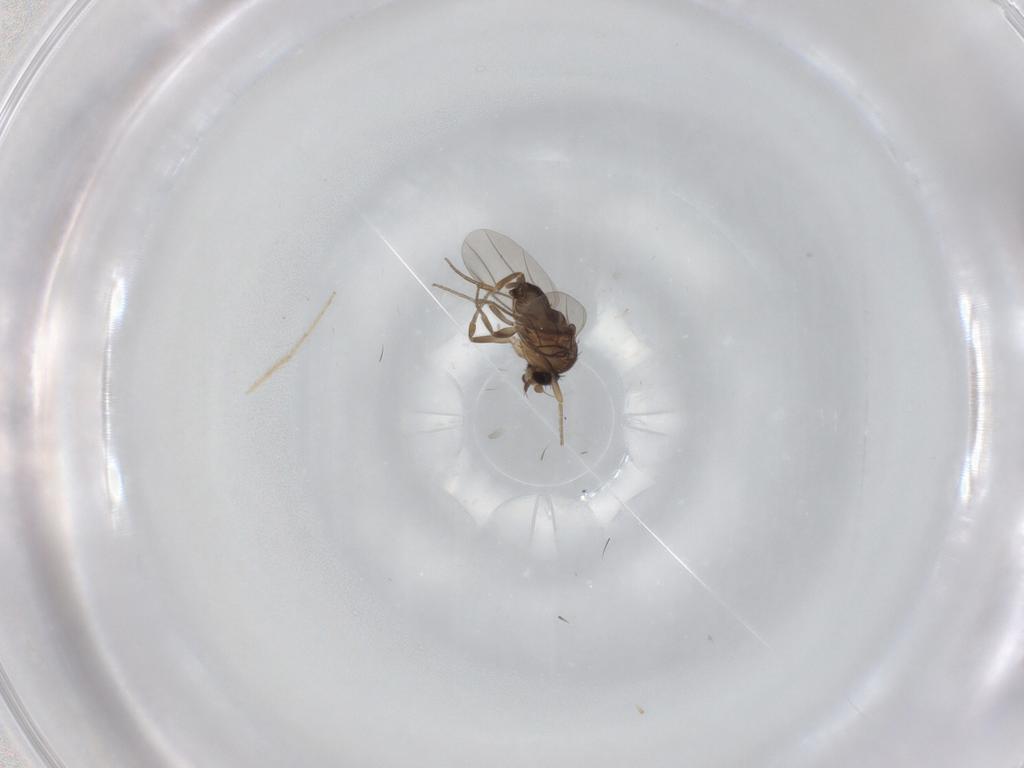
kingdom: Animalia
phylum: Arthropoda
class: Insecta
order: Diptera
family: Phoridae
